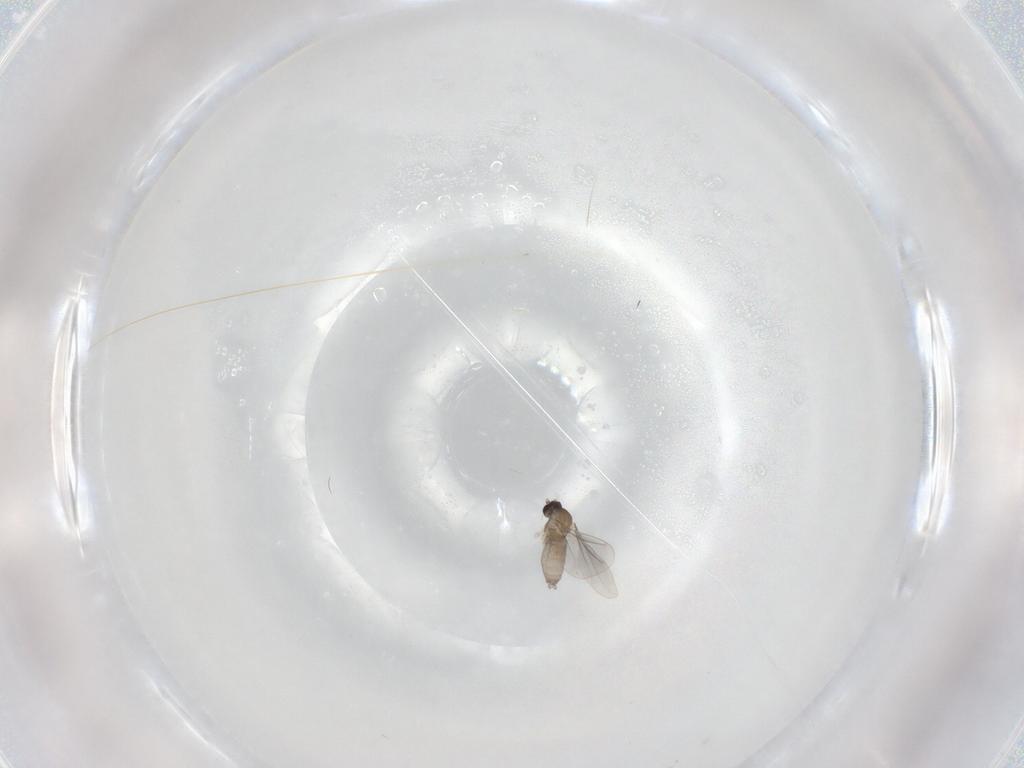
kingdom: Animalia
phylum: Arthropoda
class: Insecta
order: Diptera
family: Cecidomyiidae
